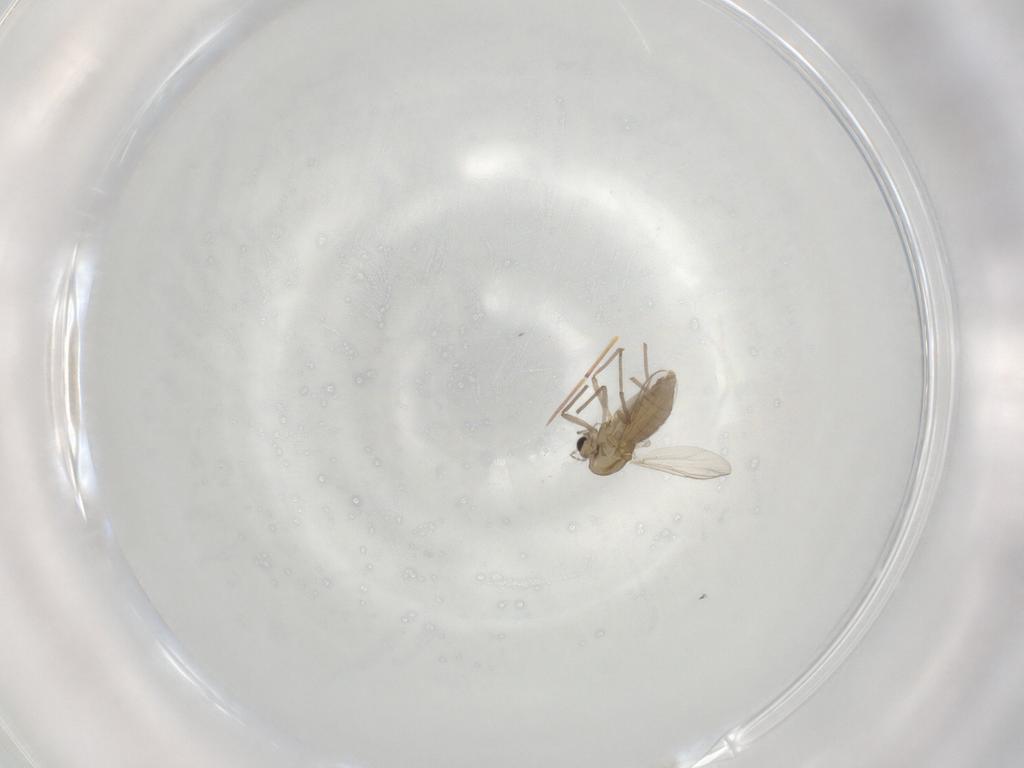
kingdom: Animalia
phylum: Arthropoda
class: Insecta
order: Diptera
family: Chironomidae
